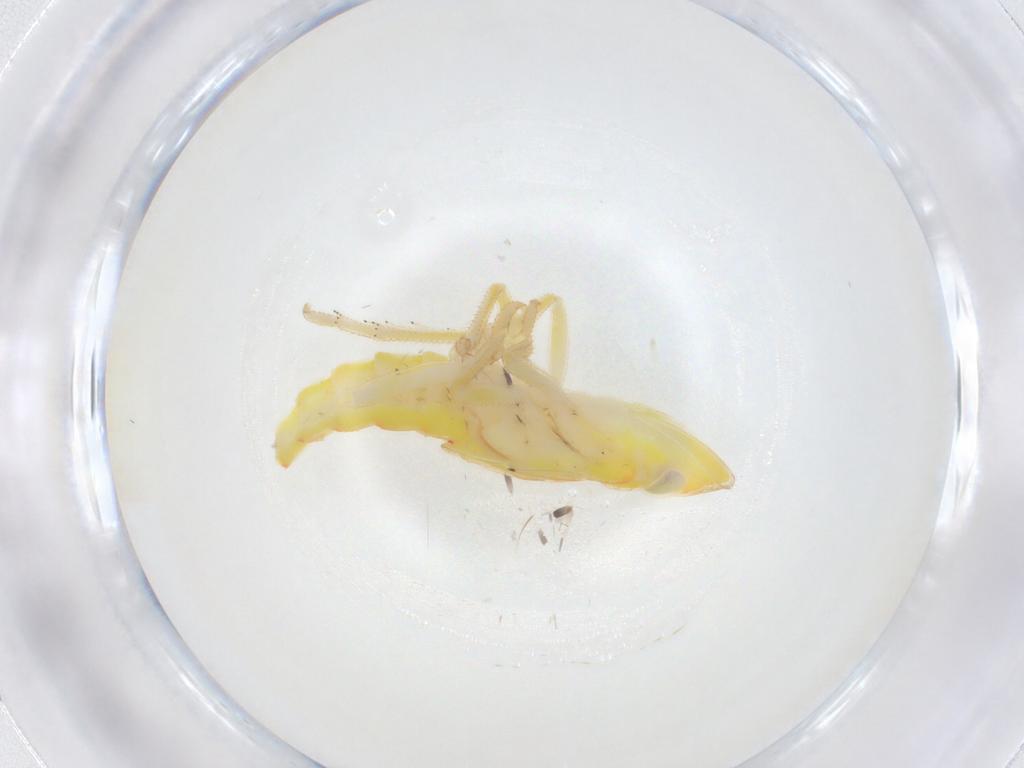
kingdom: Animalia
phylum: Arthropoda
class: Insecta
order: Hemiptera
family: Tropiduchidae
